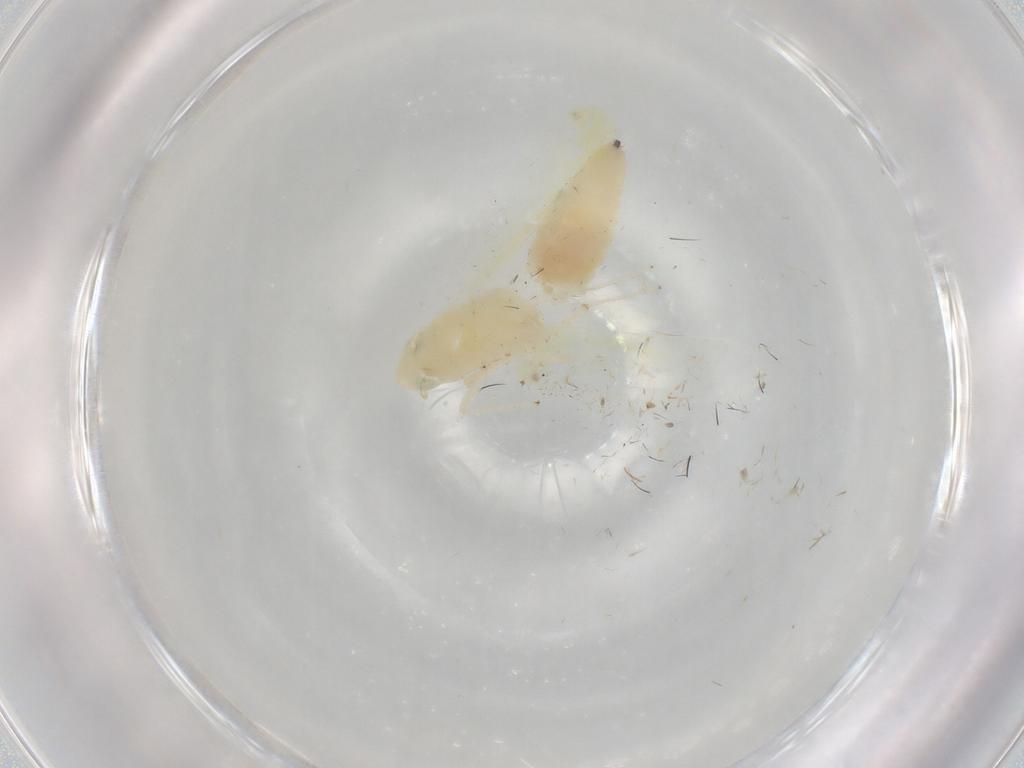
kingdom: Animalia
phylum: Arthropoda
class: Insecta
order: Hemiptera
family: Cicadellidae
